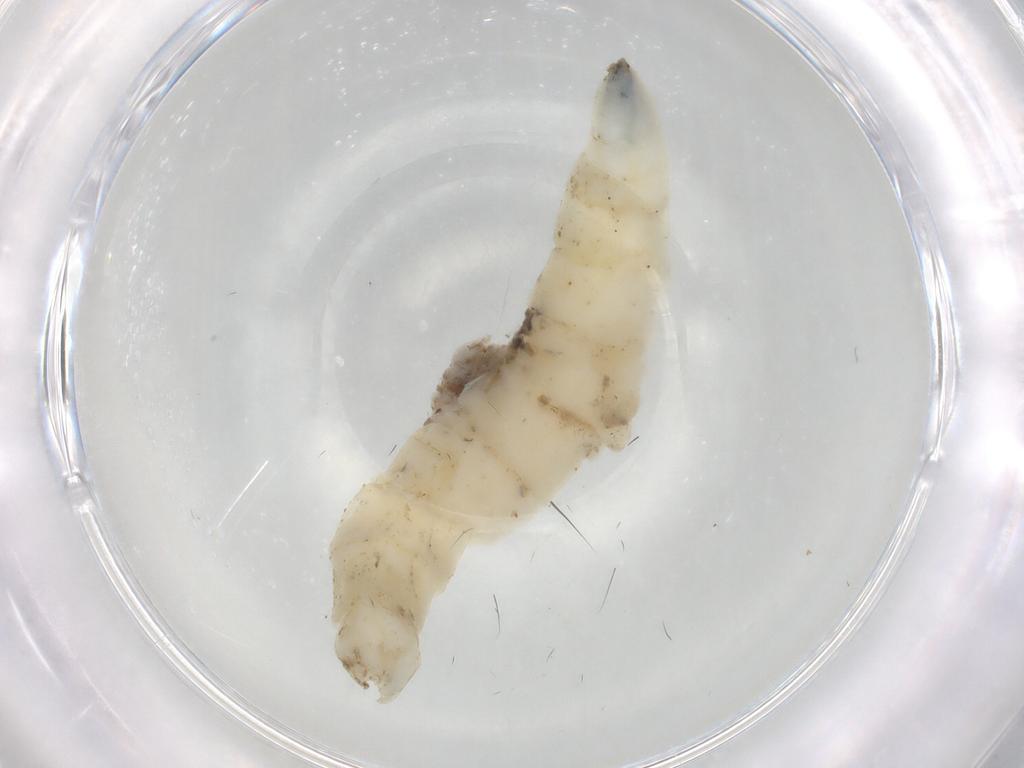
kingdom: Animalia
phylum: Arthropoda
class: Insecta
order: Diptera
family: Dolichopodidae
